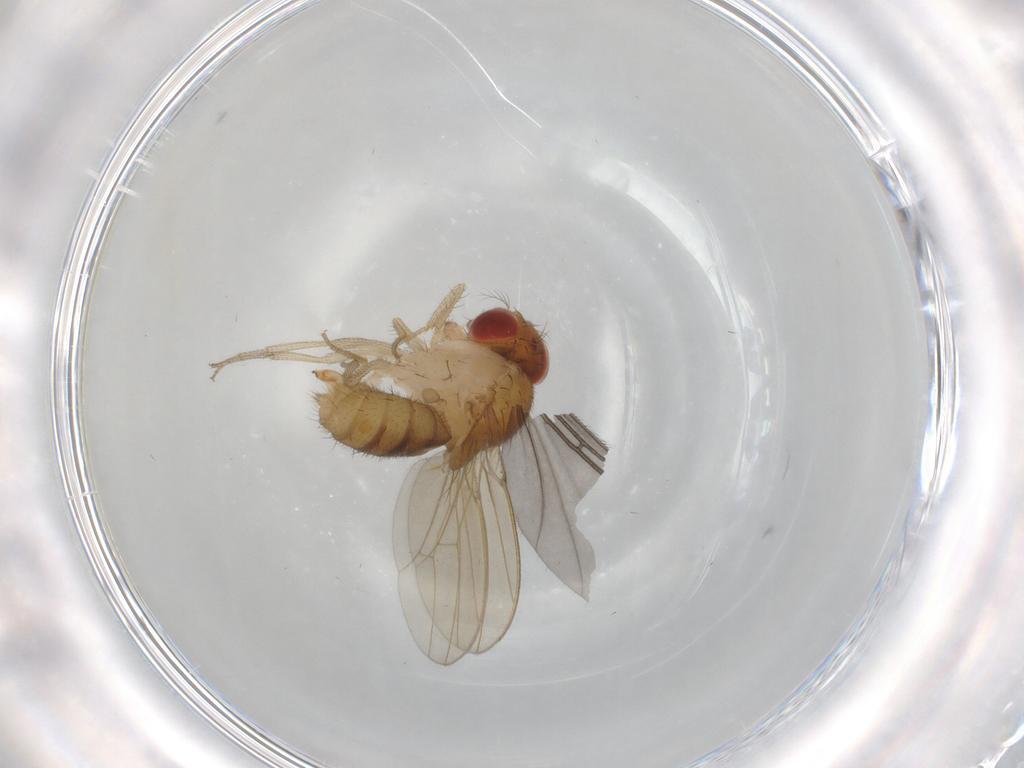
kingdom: Animalia
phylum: Arthropoda
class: Insecta
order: Diptera
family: Drosophilidae
